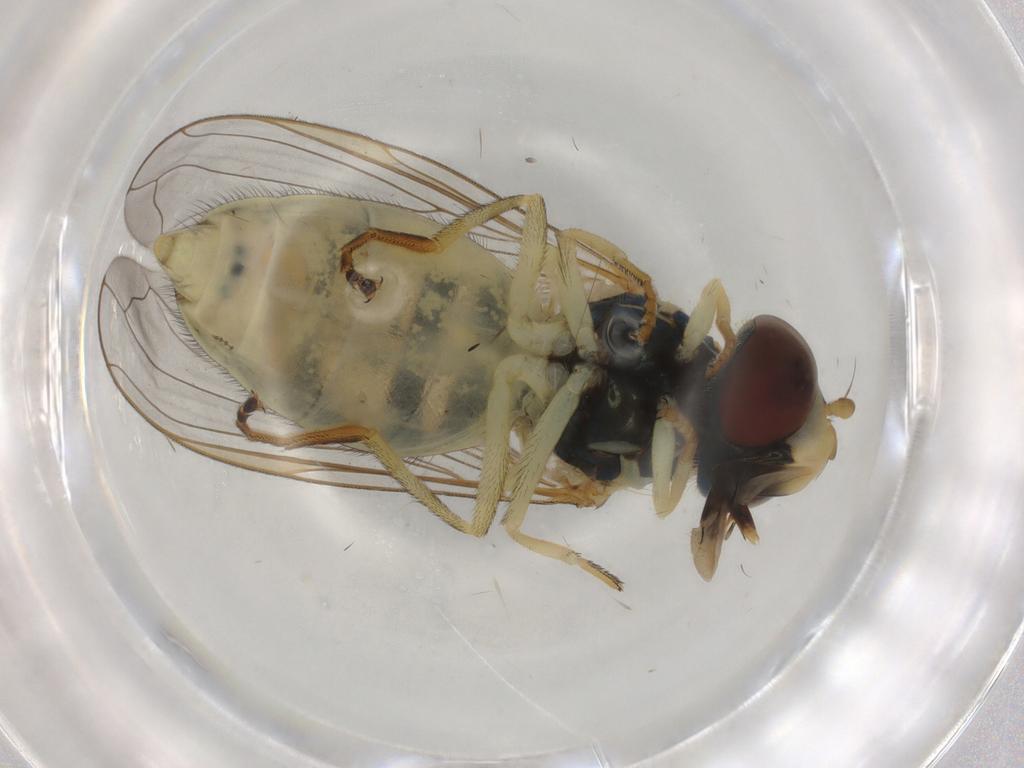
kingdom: Animalia
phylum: Arthropoda
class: Insecta
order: Diptera
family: Syrphidae
